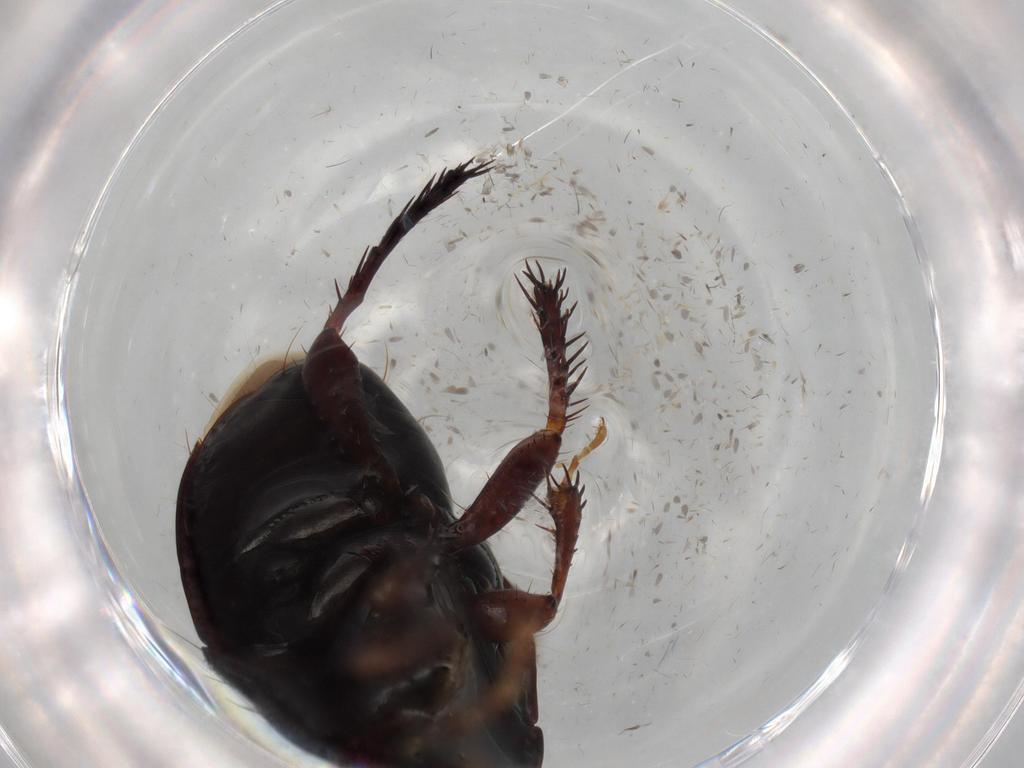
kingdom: Animalia
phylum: Arthropoda
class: Insecta
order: Hemiptera
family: Cydnidae
